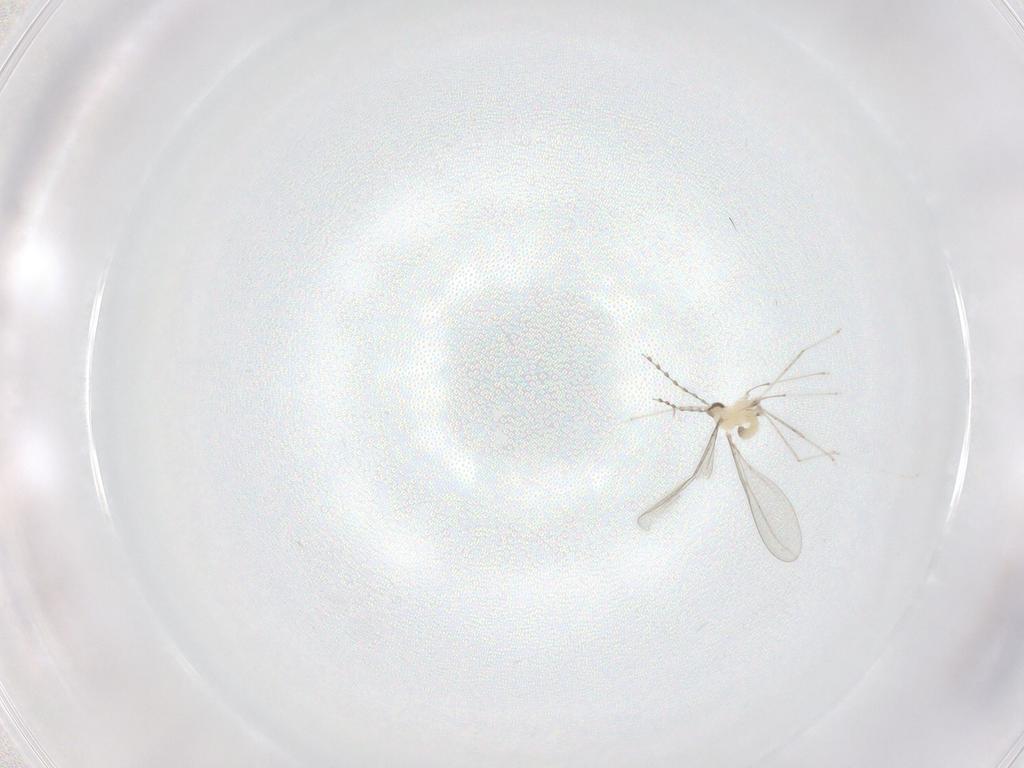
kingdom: Animalia
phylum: Arthropoda
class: Insecta
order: Diptera
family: Cecidomyiidae
